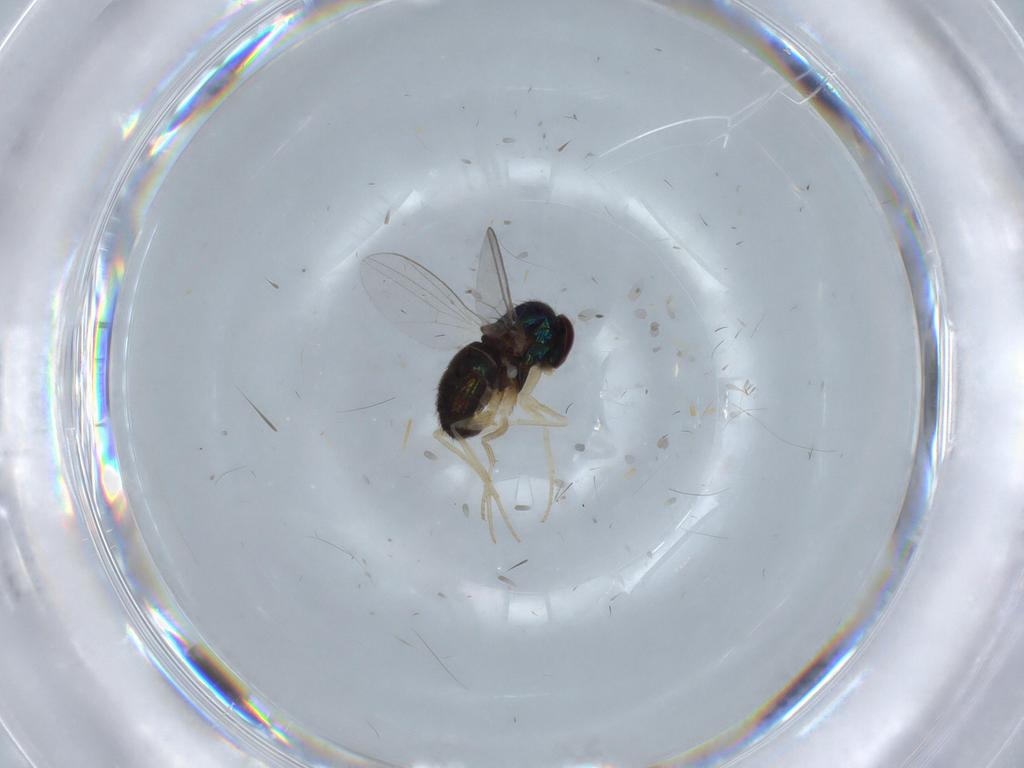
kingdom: Animalia
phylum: Arthropoda
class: Insecta
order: Diptera
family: Dolichopodidae
